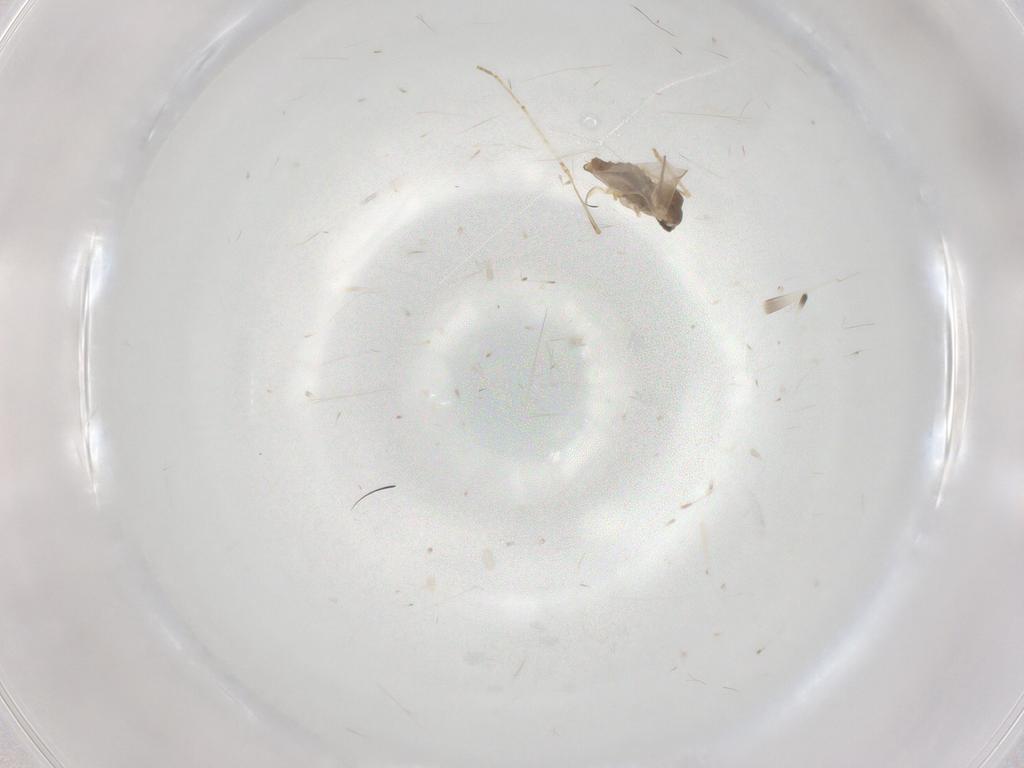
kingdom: Animalia
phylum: Arthropoda
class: Insecta
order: Diptera
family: Cecidomyiidae
